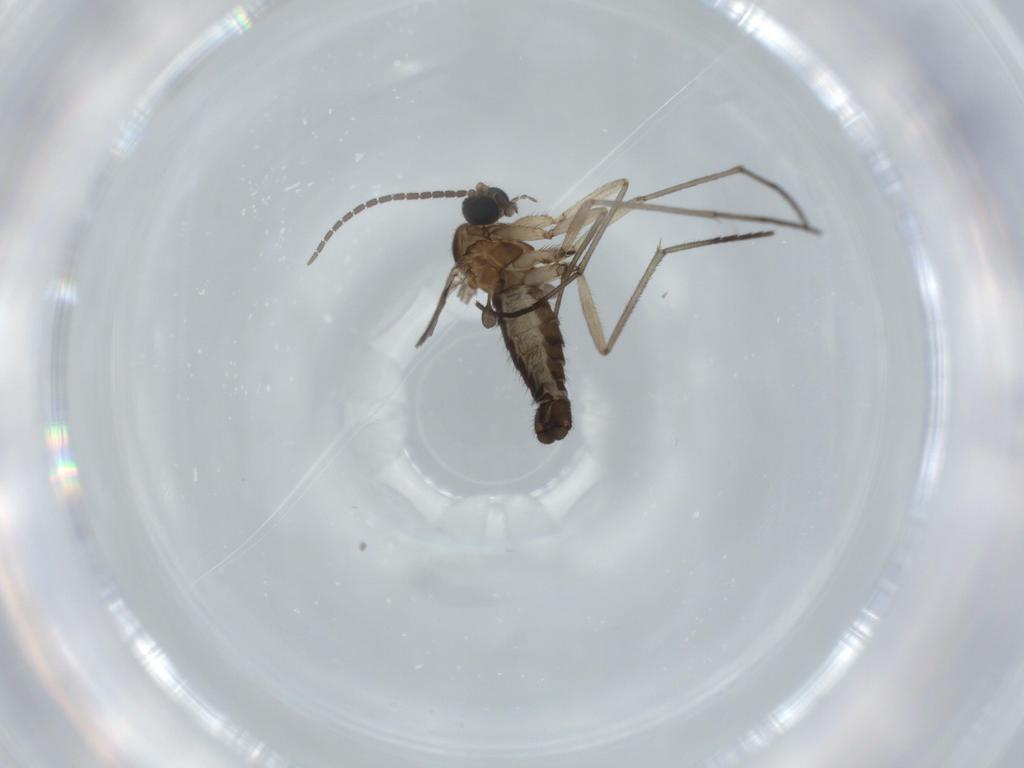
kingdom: Animalia
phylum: Arthropoda
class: Insecta
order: Diptera
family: Sciaridae
